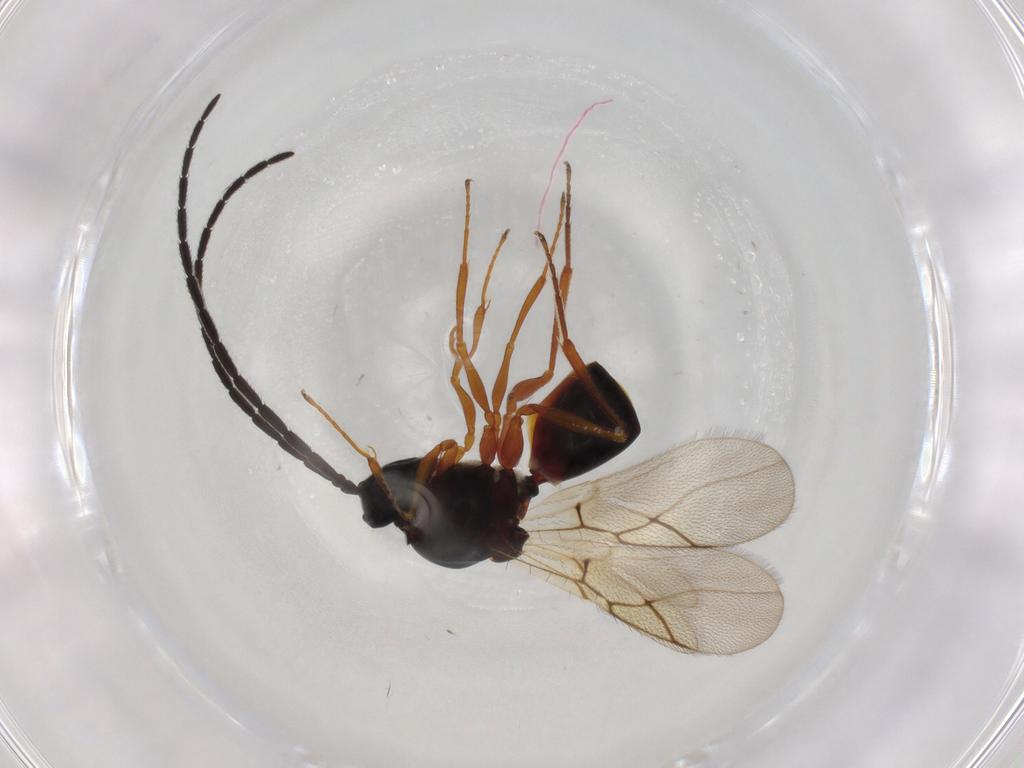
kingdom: Animalia
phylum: Arthropoda
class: Insecta
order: Hymenoptera
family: Figitidae
